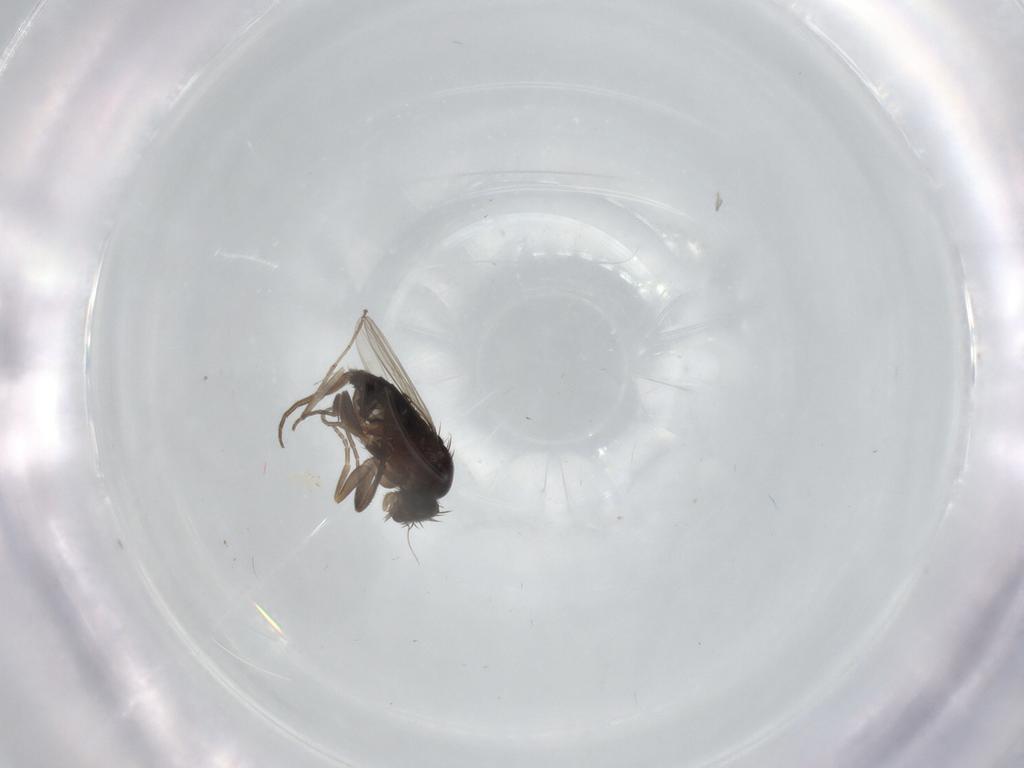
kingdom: Animalia
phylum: Arthropoda
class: Insecta
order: Diptera
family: Phoridae
